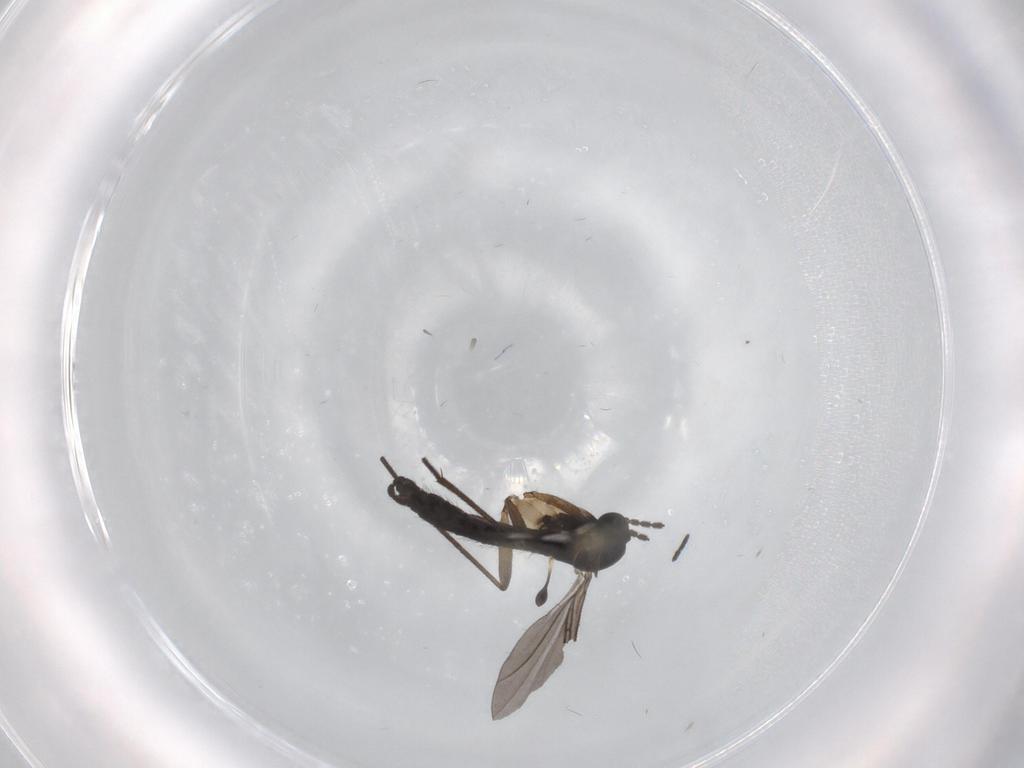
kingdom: Animalia
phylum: Arthropoda
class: Insecta
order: Diptera
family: Sciaridae
